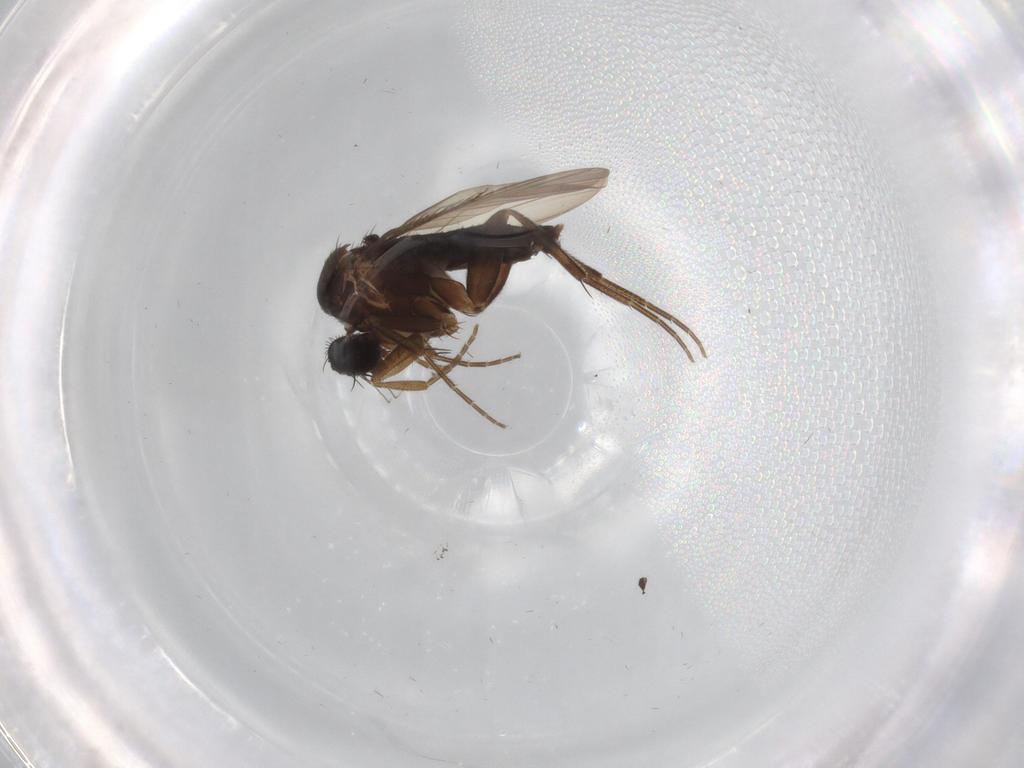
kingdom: Animalia
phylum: Arthropoda
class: Insecta
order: Diptera
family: Phoridae
